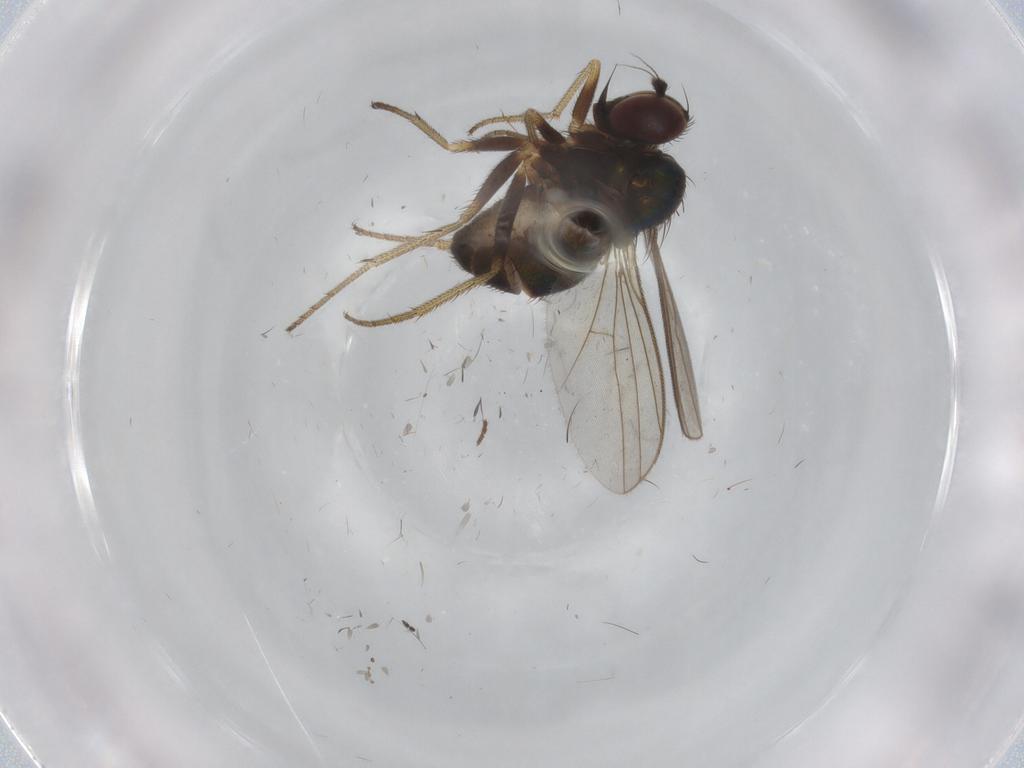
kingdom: Animalia
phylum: Arthropoda
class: Insecta
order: Diptera
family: Dolichopodidae
